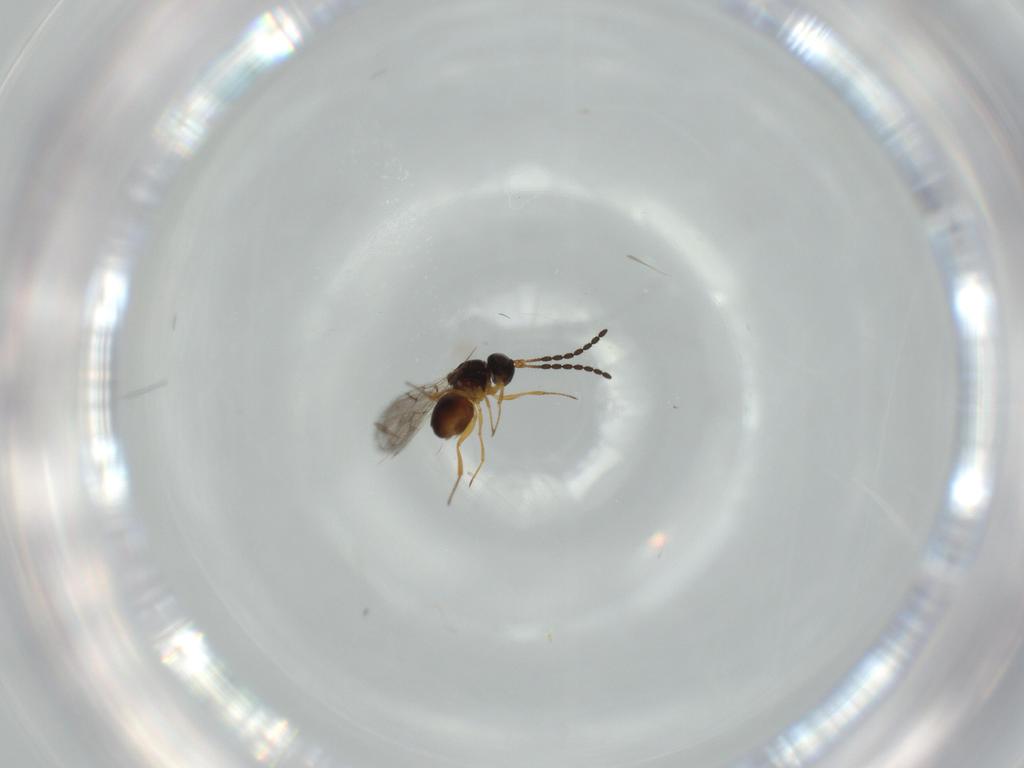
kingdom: Animalia
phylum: Arthropoda
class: Insecta
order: Hymenoptera
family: Figitidae
